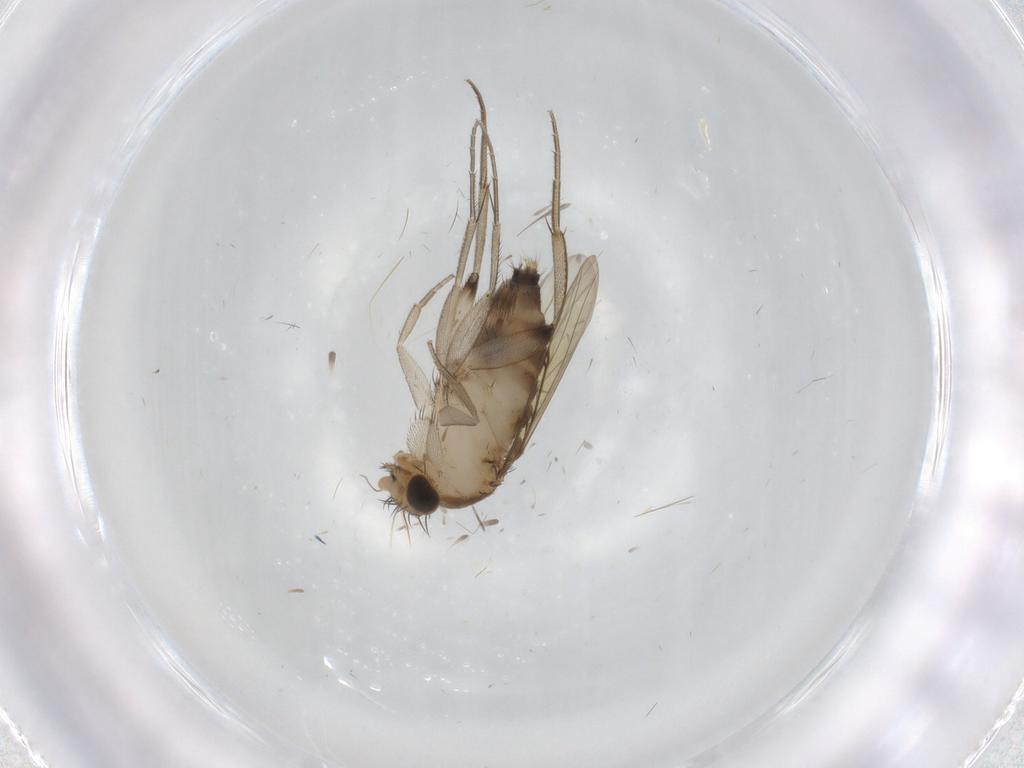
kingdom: Animalia
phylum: Arthropoda
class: Insecta
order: Diptera
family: Phoridae
